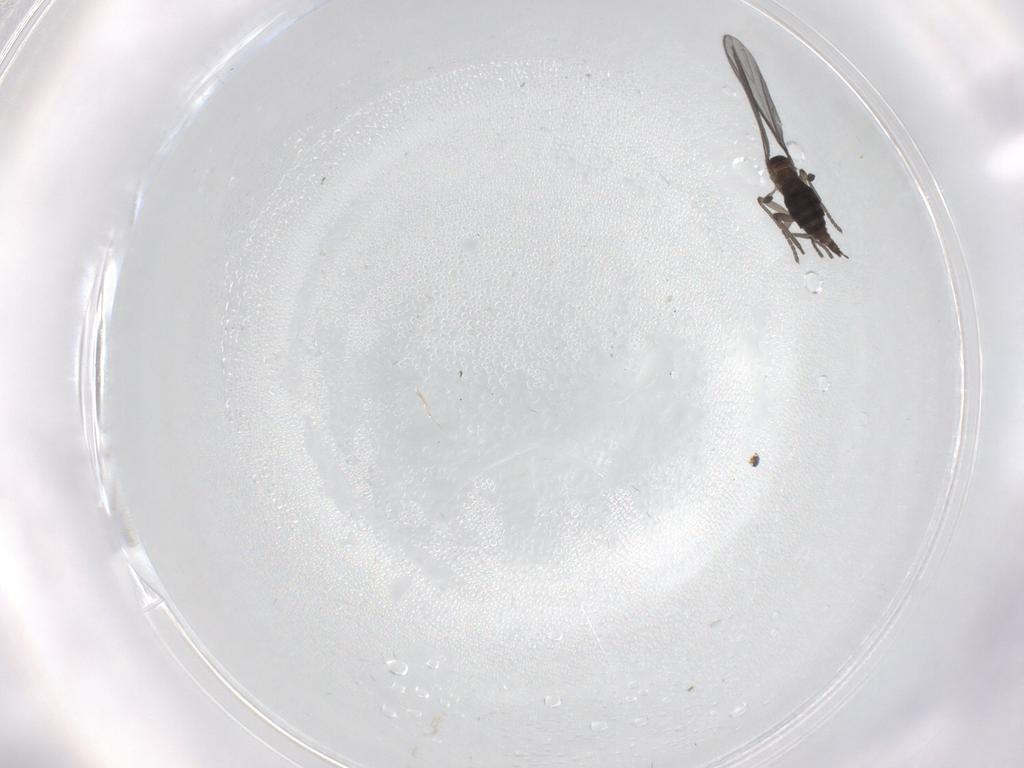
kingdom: Animalia
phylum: Arthropoda
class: Insecta
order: Diptera
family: Sciaridae
